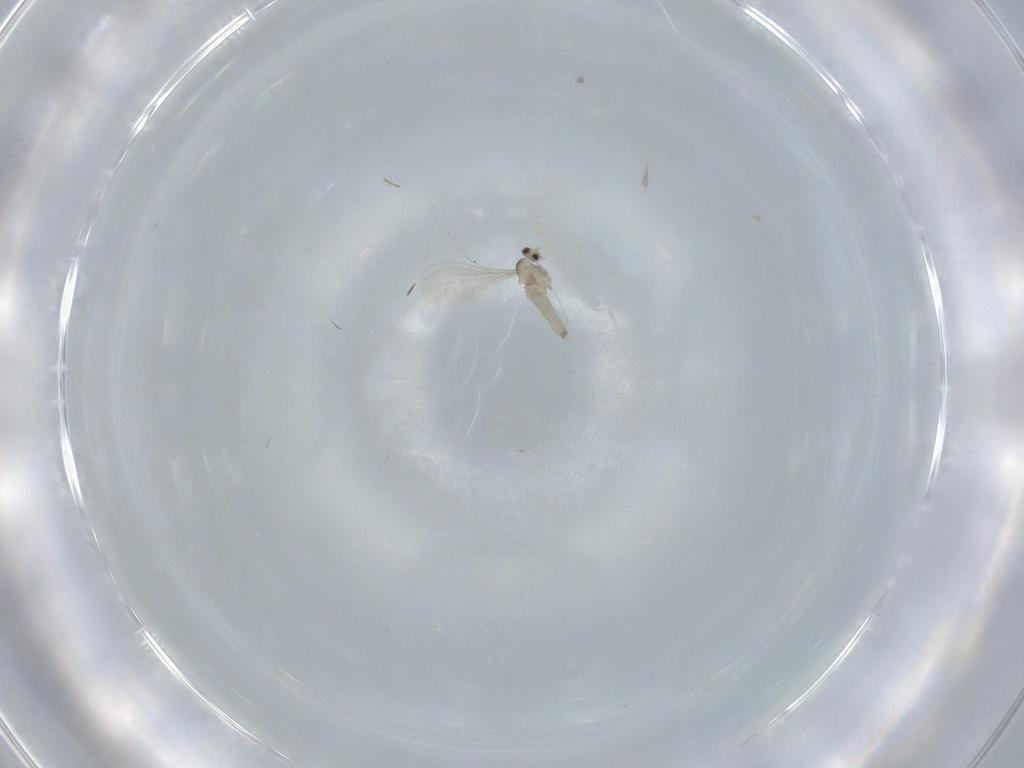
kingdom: Animalia
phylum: Arthropoda
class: Insecta
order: Diptera
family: Cecidomyiidae
